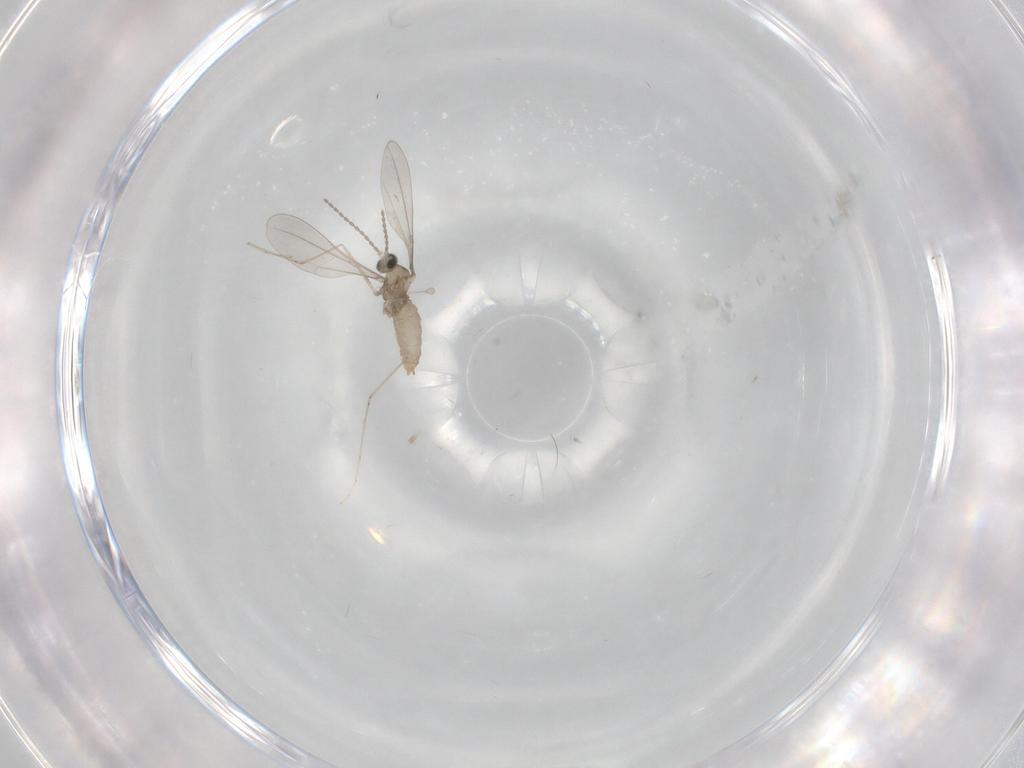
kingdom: Animalia
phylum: Arthropoda
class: Insecta
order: Diptera
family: Cecidomyiidae
